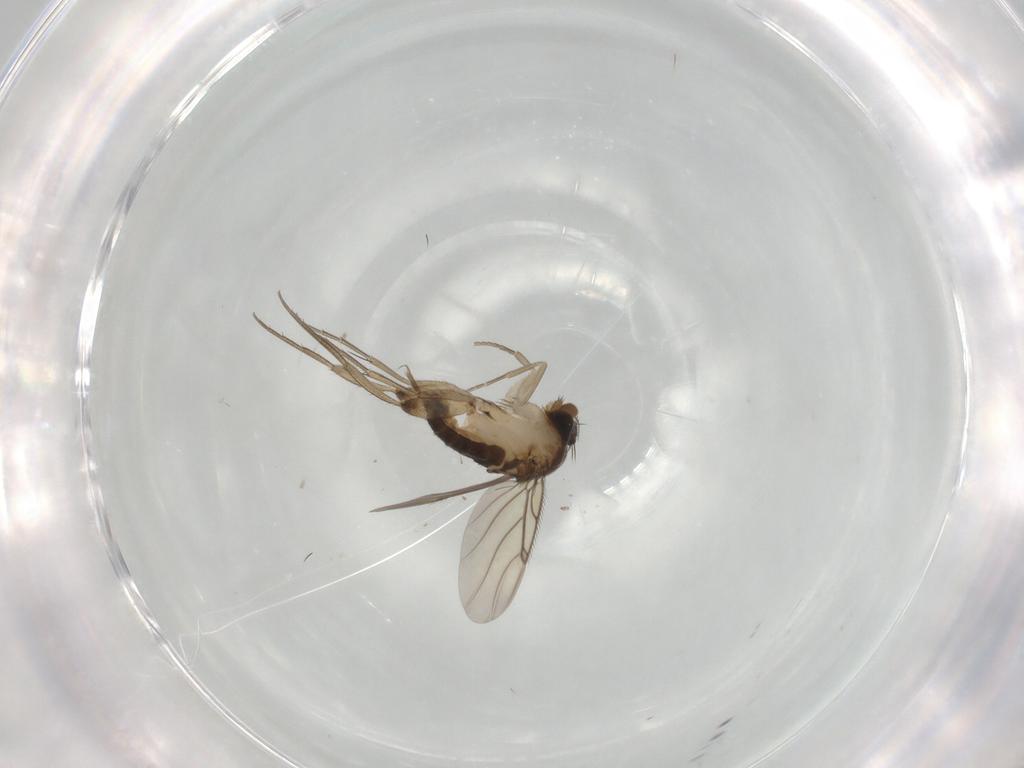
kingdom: Animalia
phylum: Arthropoda
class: Insecta
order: Diptera
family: Phoridae
